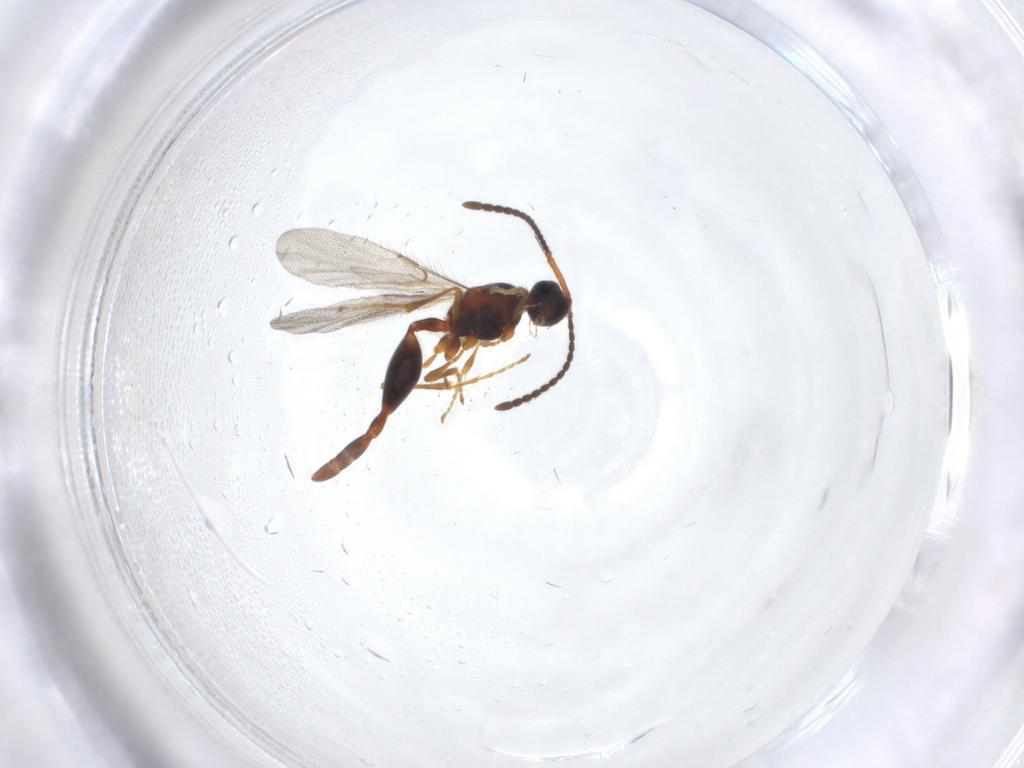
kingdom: Animalia
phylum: Arthropoda
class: Insecta
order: Hymenoptera
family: Diapriidae
